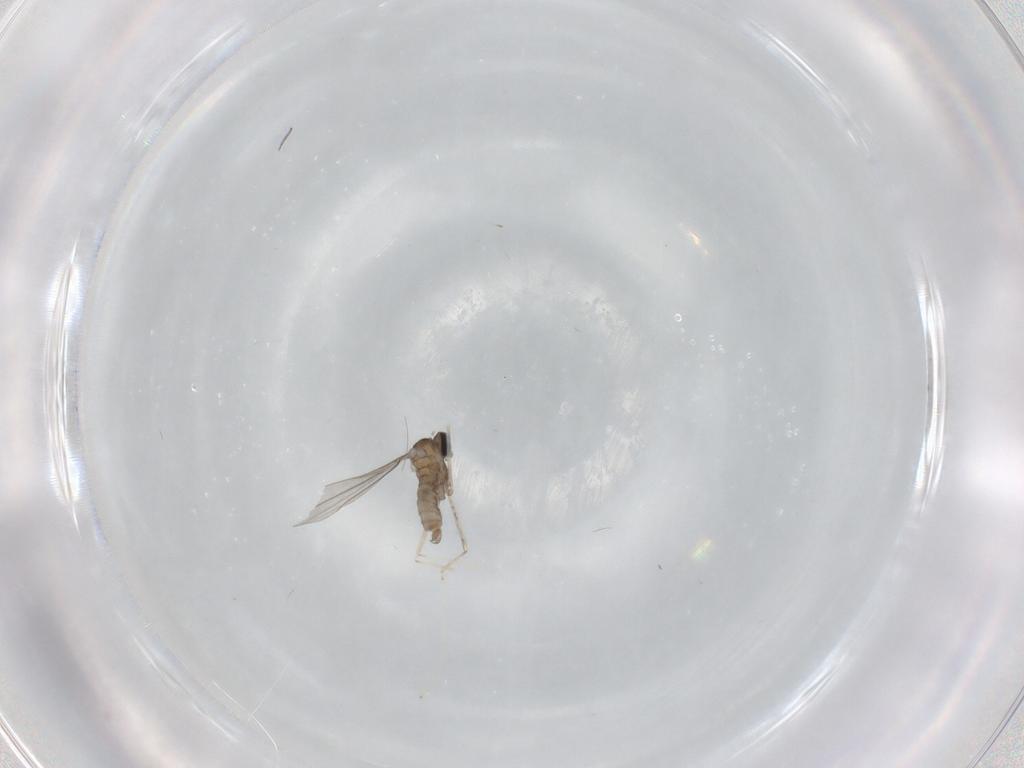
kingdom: Animalia
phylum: Arthropoda
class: Insecta
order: Diptera
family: Cecidomyiidae
